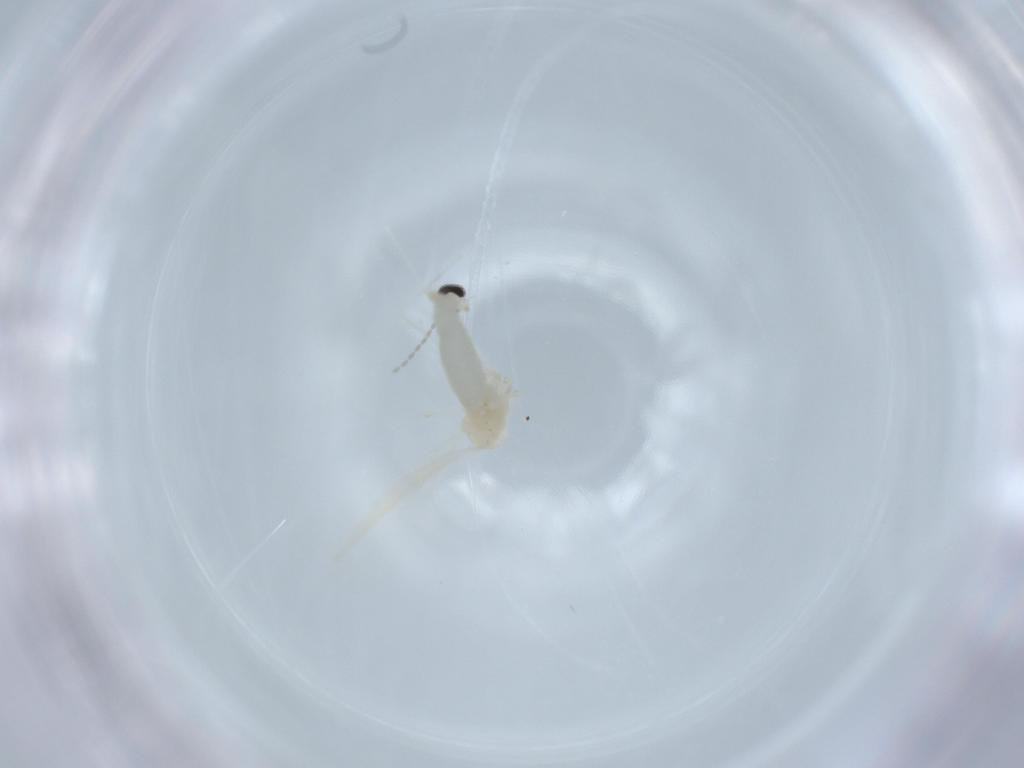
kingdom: Animalia
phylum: Arthropoda
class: Insecta
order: Diptera
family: Cecidomyiidae
